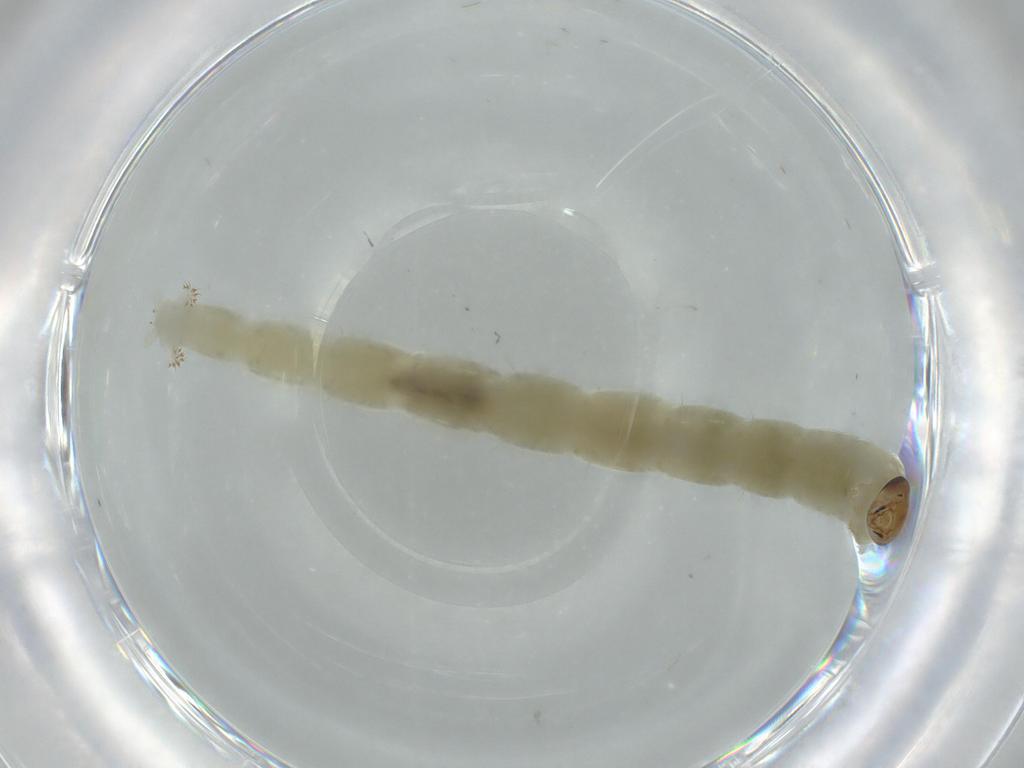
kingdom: Animalia
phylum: Arthropoda
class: Insecta
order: Diptera
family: Chironomidae
